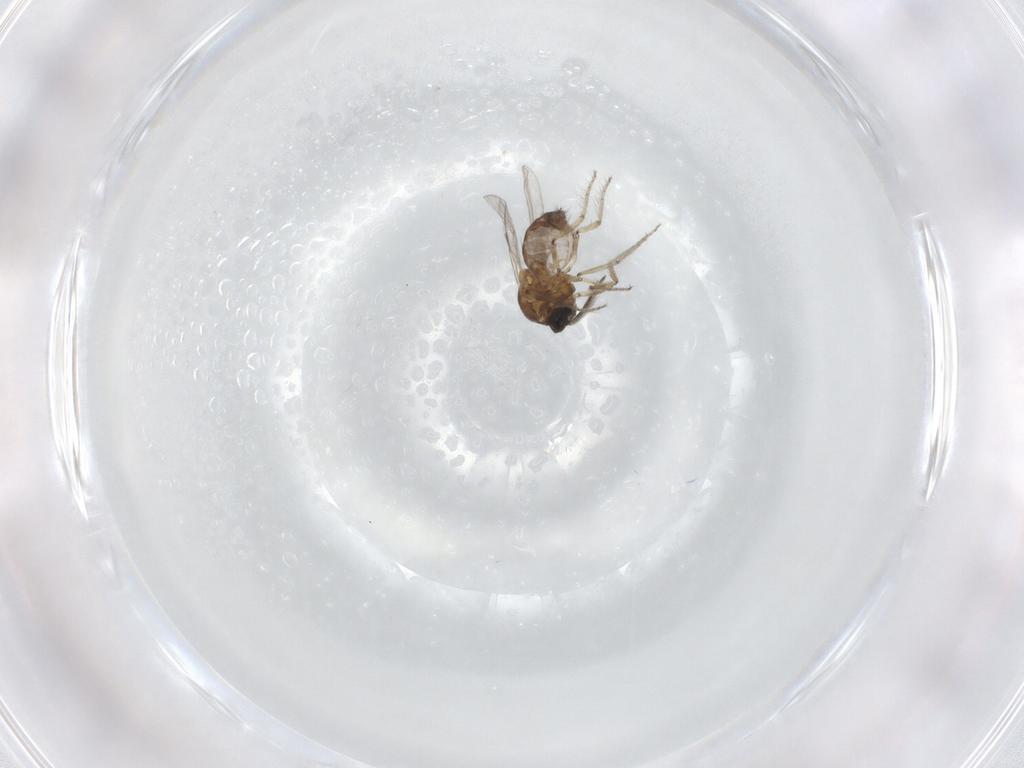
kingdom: Animalia
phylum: Arthropoda
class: Insecta
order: Diptera
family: Ceratopogonidae
